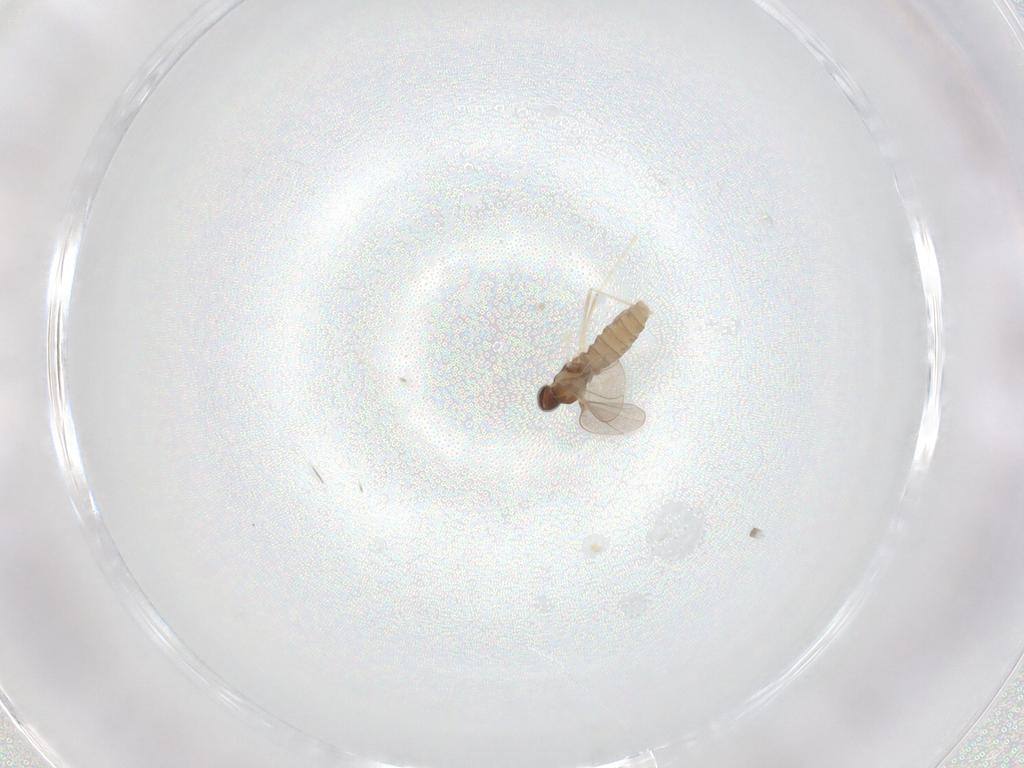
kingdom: Animalia
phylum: Arthropoda
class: Insecta
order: Diptera
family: Cecidomyiidae
